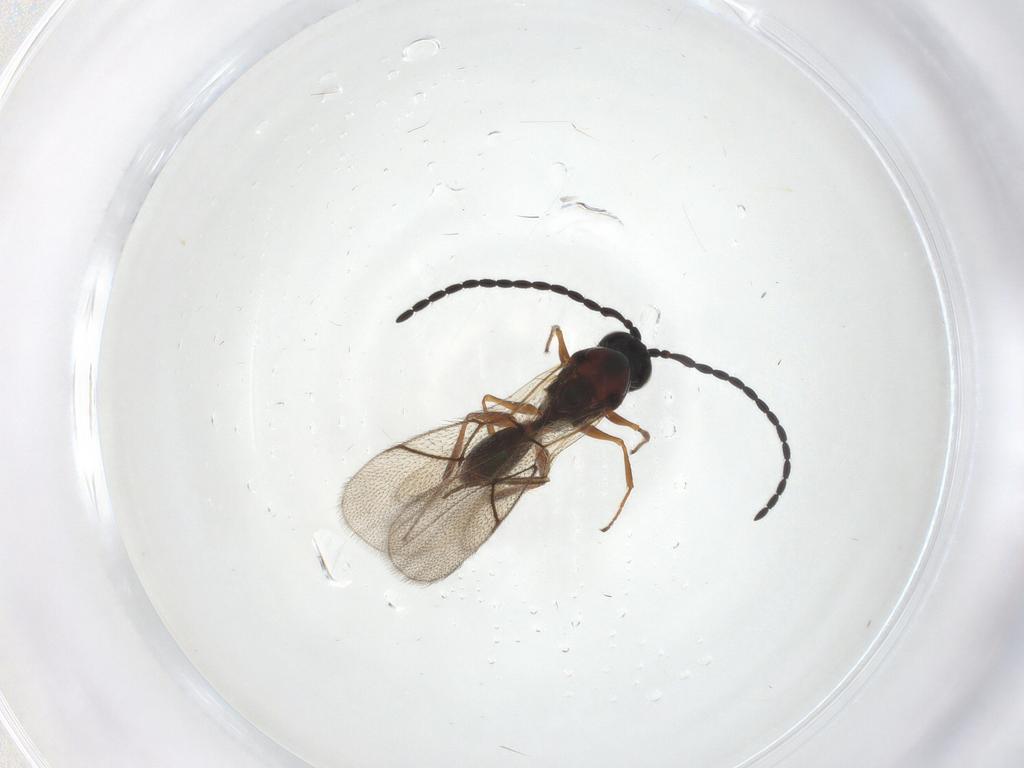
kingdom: Animalia
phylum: Arthropoda
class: Insecta
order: Hymenoptera
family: Figitidae
